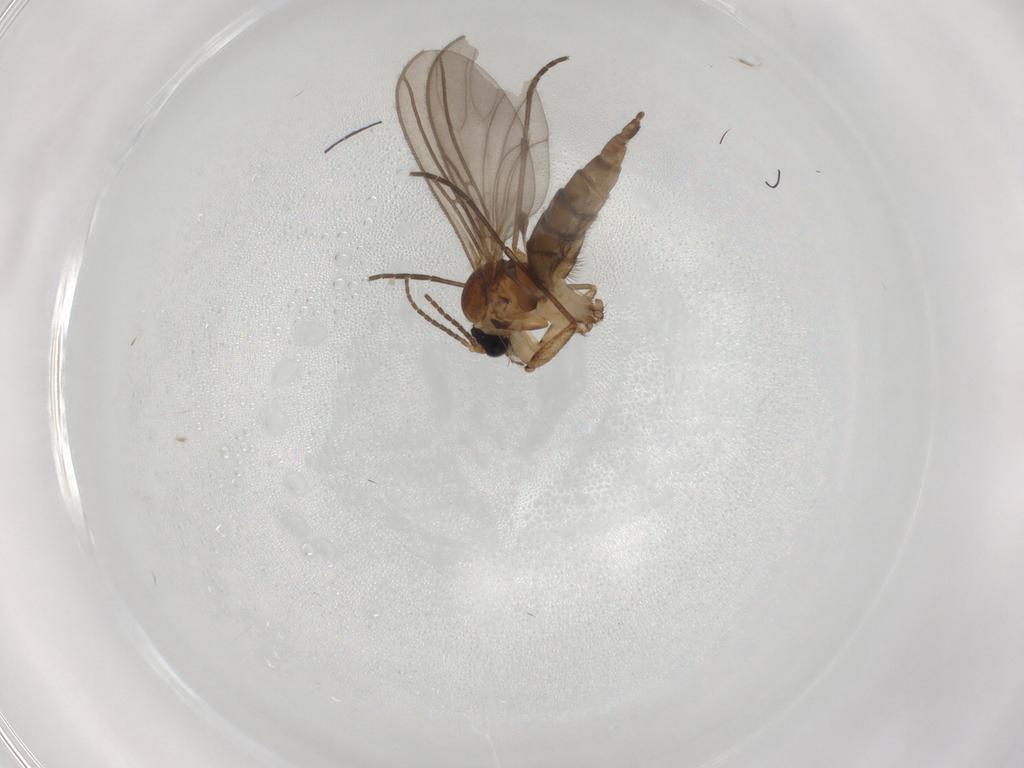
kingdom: Animalia
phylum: Arthropoda
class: Insecta
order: Diptera
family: Sciaridae
